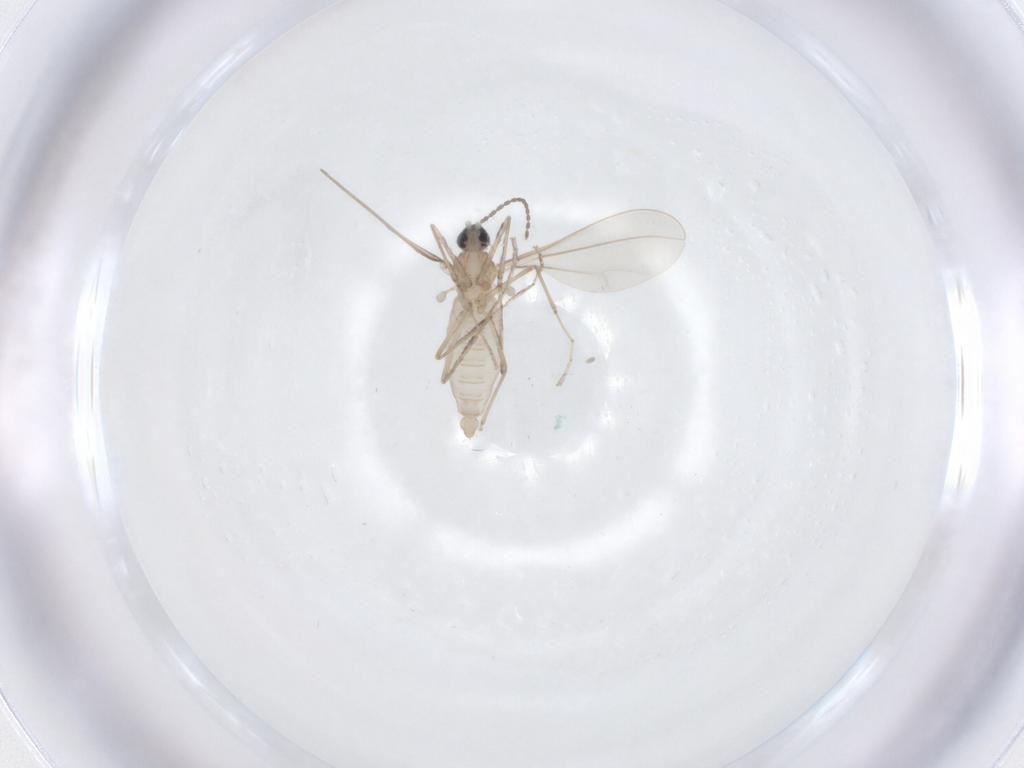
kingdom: Animalia
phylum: Arthropoda
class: Insecta
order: Diptera
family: Cecidomyiidae
